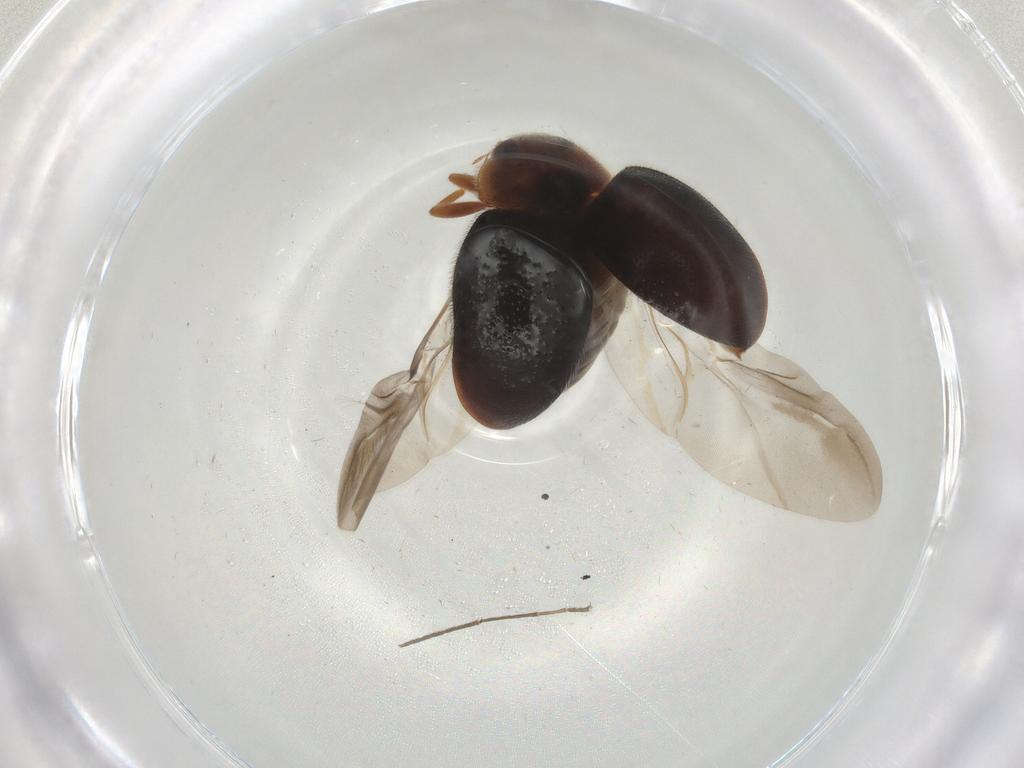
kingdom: Animalia
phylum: Arthropoda
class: Insecta
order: Coleoptera
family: Coccinellidae
